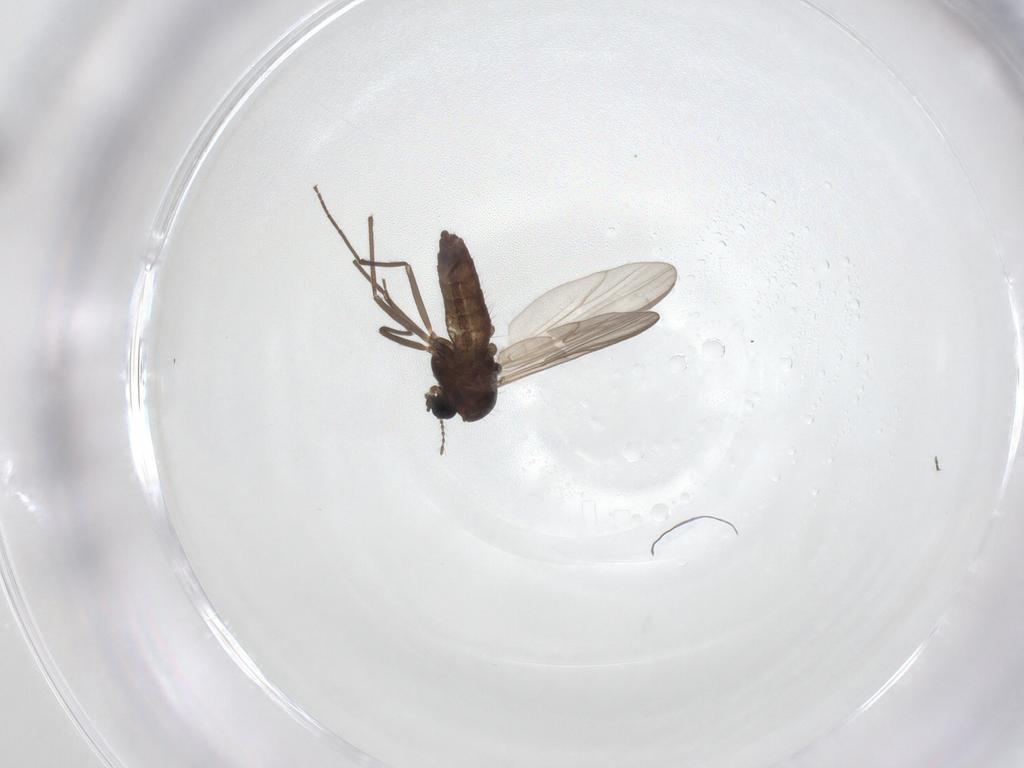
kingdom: Animalia
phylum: Arthropoda
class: Insecta
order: Diptera
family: Chironomidae
